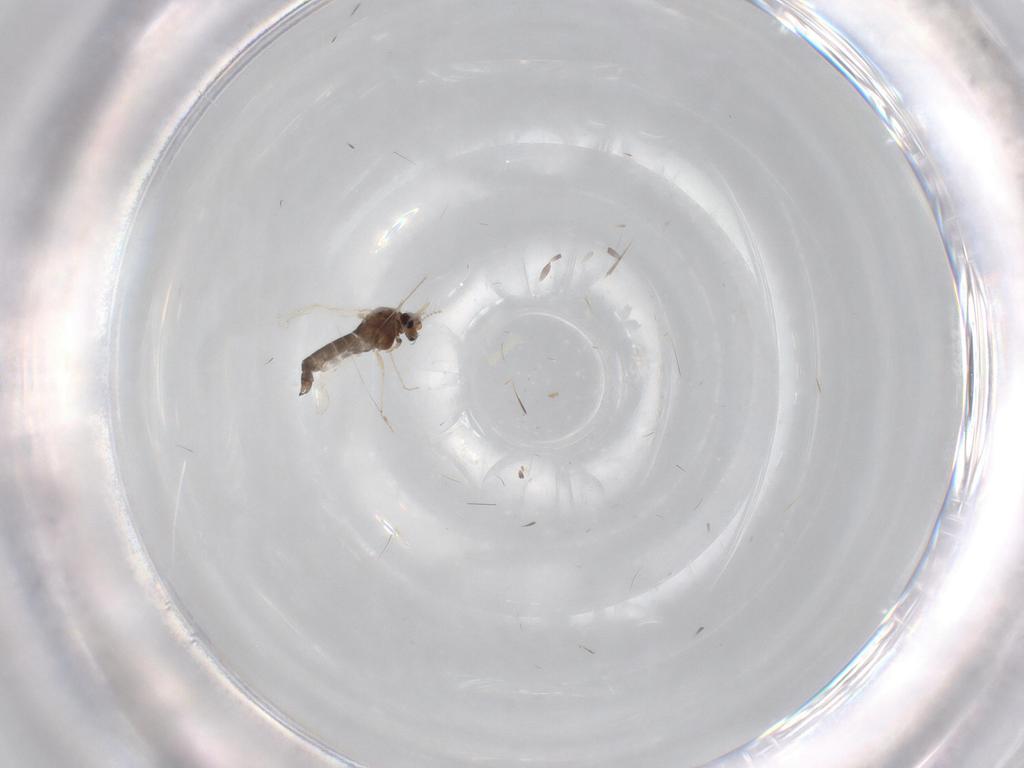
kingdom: Animalia
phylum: Arthropoda
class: Insecta
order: Diptera
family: Chironomidae
